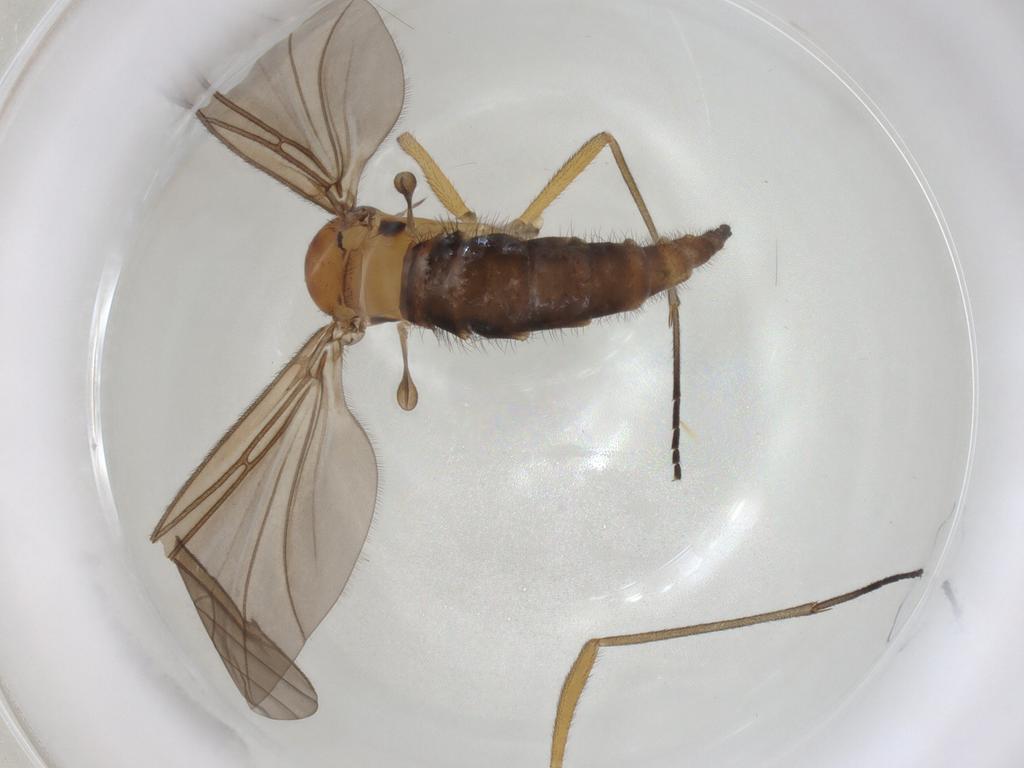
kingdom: Animalia
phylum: Arthropoda
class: Insecta
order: Diptera
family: Sciaridae
